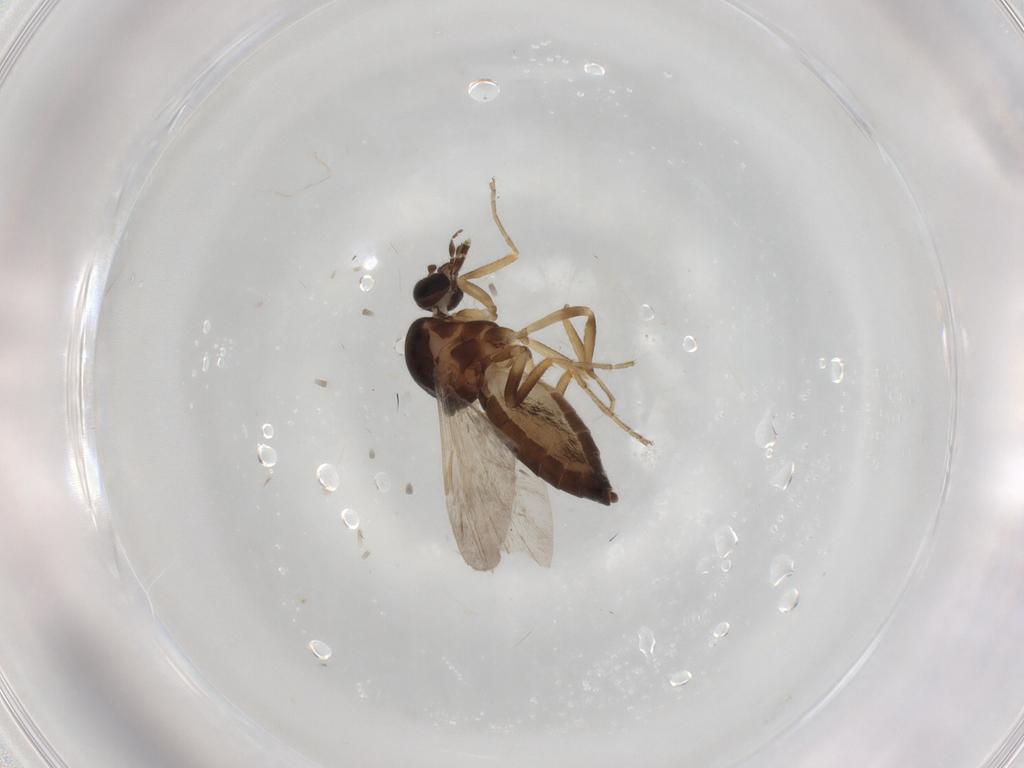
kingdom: Animalia
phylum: Arthropoda
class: Insecta
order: Diptera
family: Ceratopogonidae
